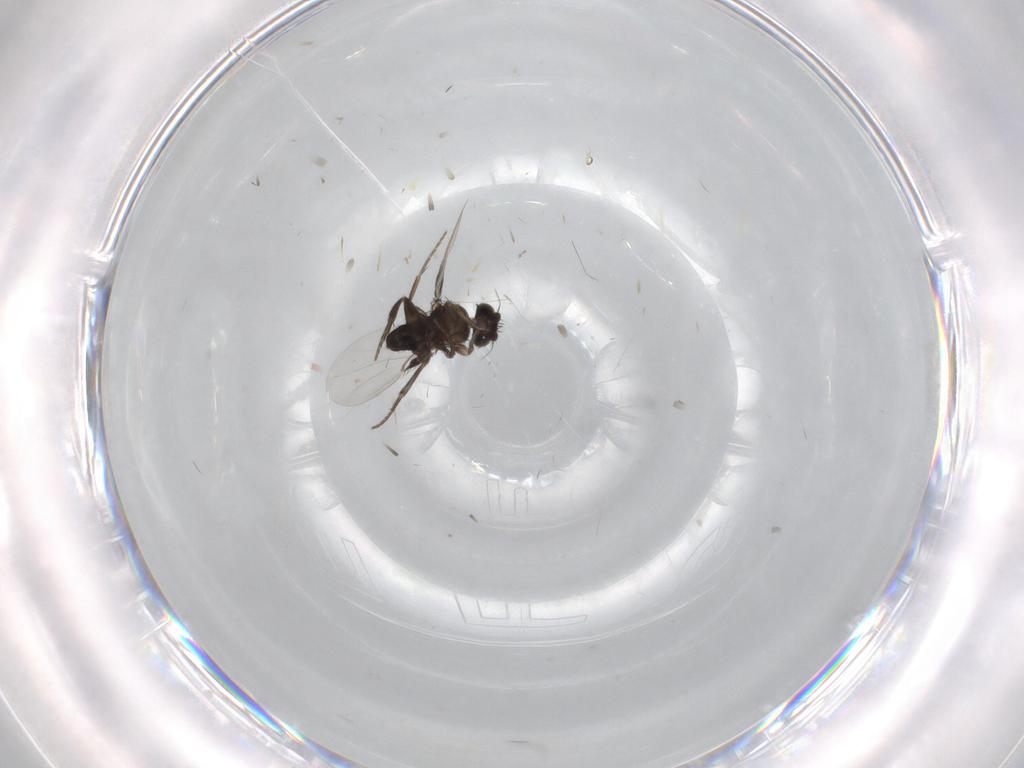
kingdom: Animalia
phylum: Arthropoda
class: Insecta
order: Diptera
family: Phoridae
